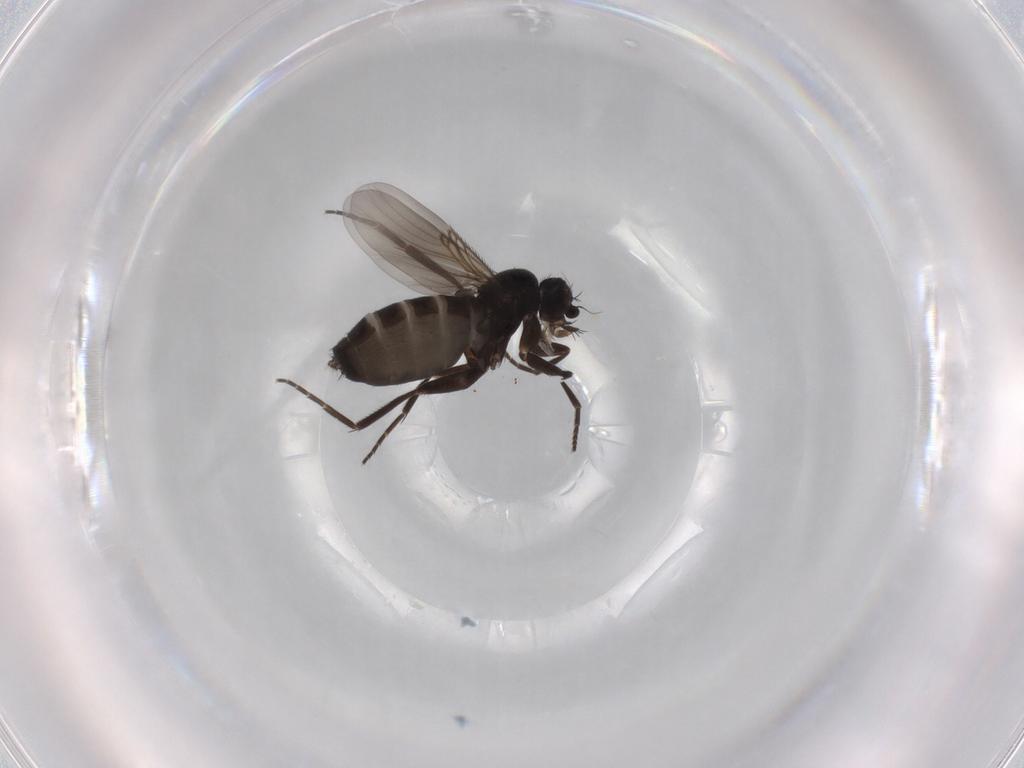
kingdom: Animalia
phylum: Arthropoda
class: Insecta
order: Diptera
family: Phoridae
